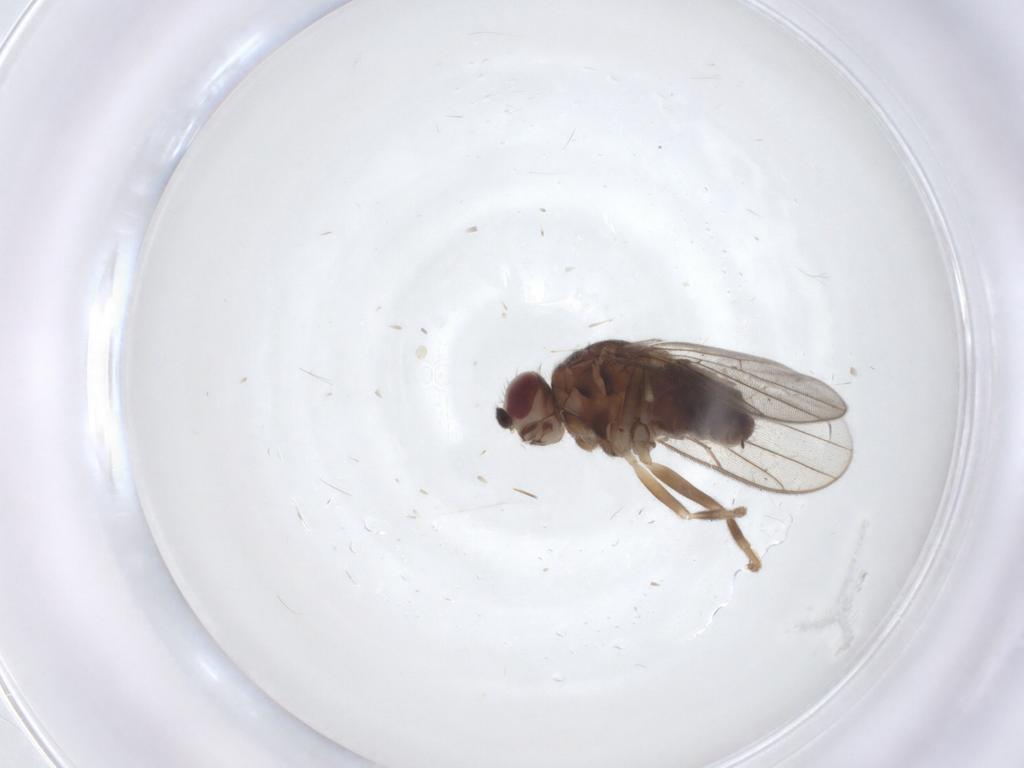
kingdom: Animalia
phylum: Arthropoda
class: Insecta
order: Diptera
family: Chloropidae
